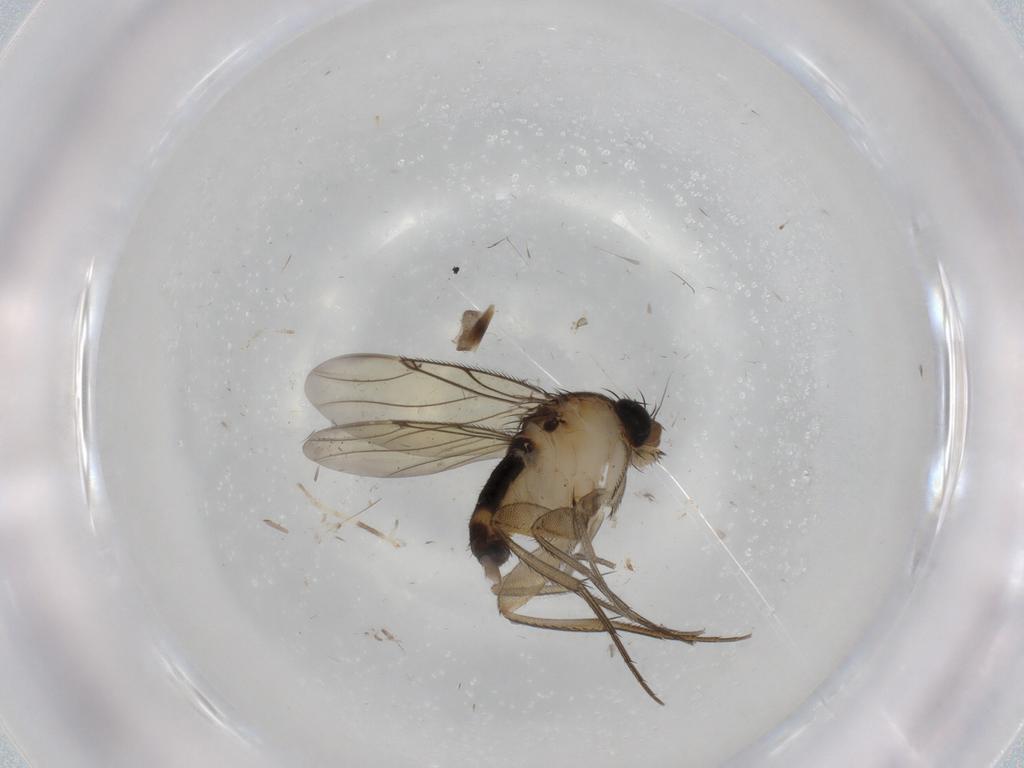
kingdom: Animalia
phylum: Arthropoda
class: Insecta
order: Diptera
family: Phoridae
